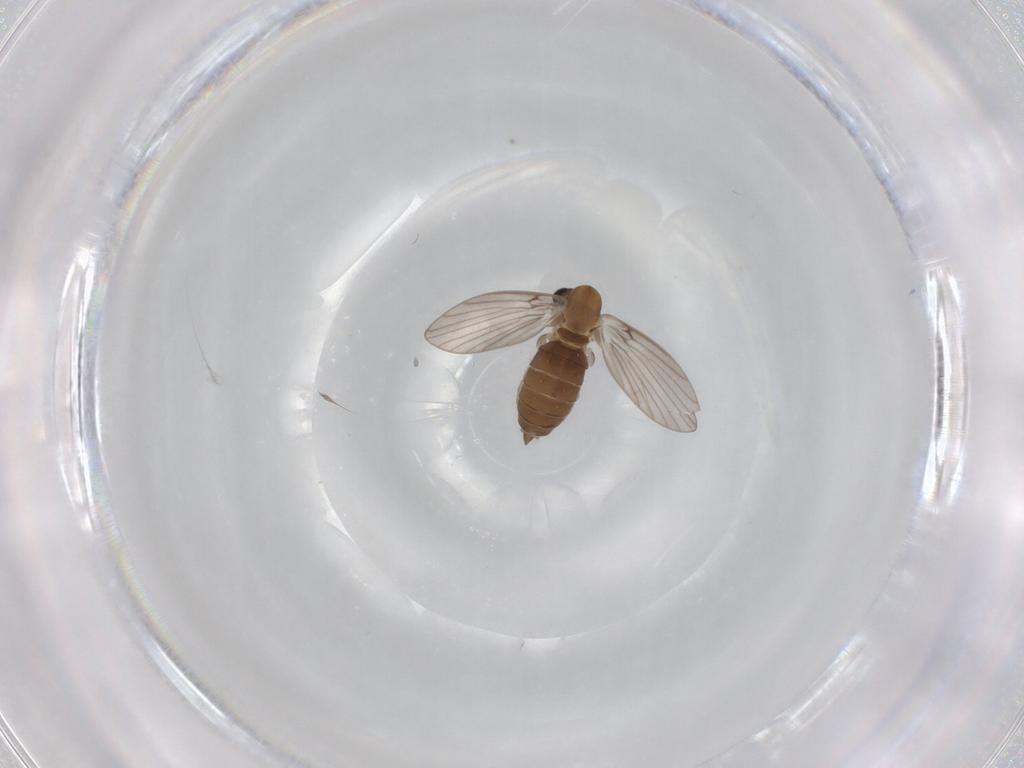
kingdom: Animalia
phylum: Arthropoda
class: Insecta
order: Diptera
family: Psychodidae
